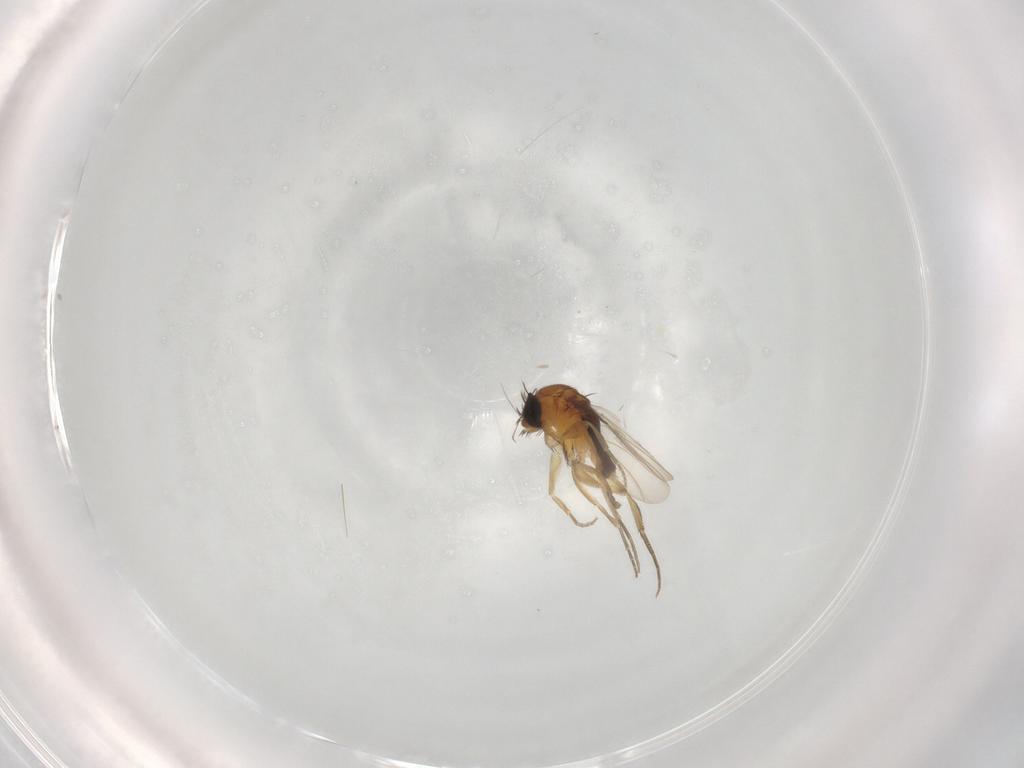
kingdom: Animalia
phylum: Arthropoda
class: Insecta
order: Diptera
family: Phoridae
